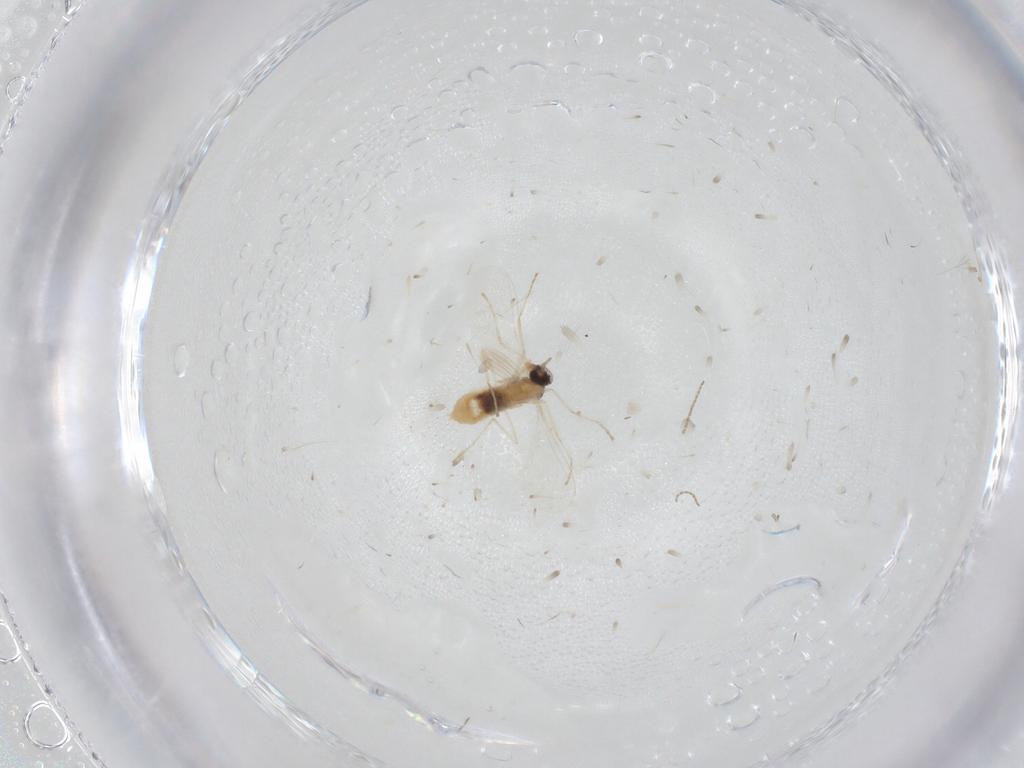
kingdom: Animalia
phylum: Arthropoda
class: Insecta
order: Diptera
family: Cecidomyiidae
